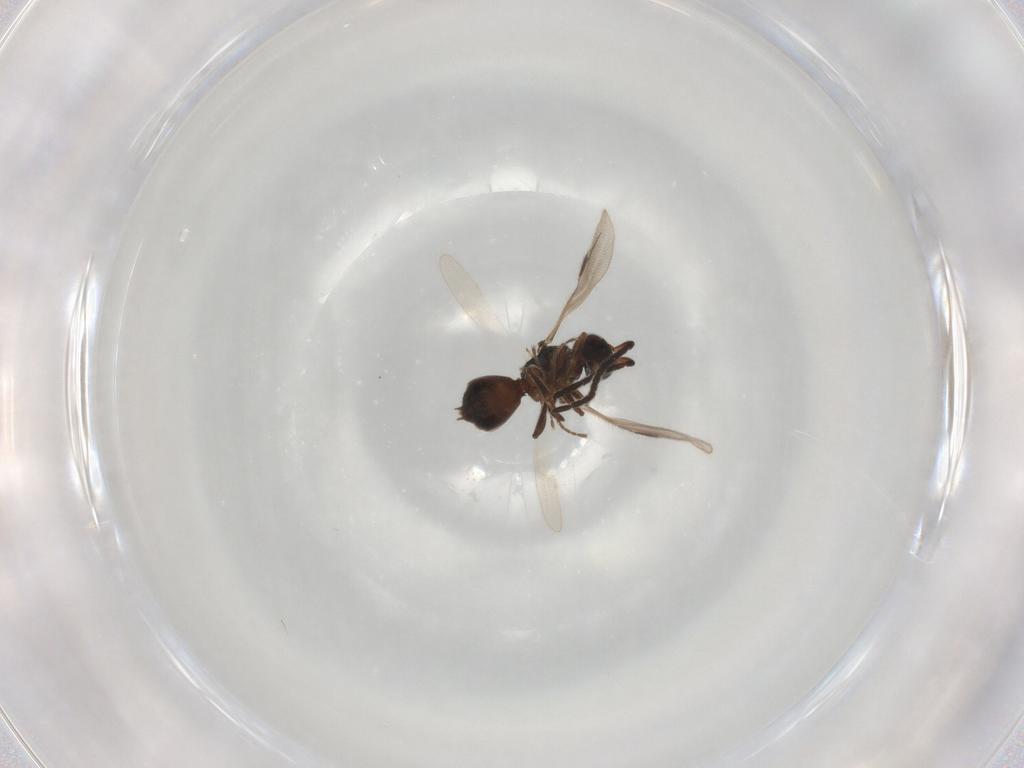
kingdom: Animalia
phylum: Arthropoda
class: Insecta
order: Hymenoptera
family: Megaspilidae
